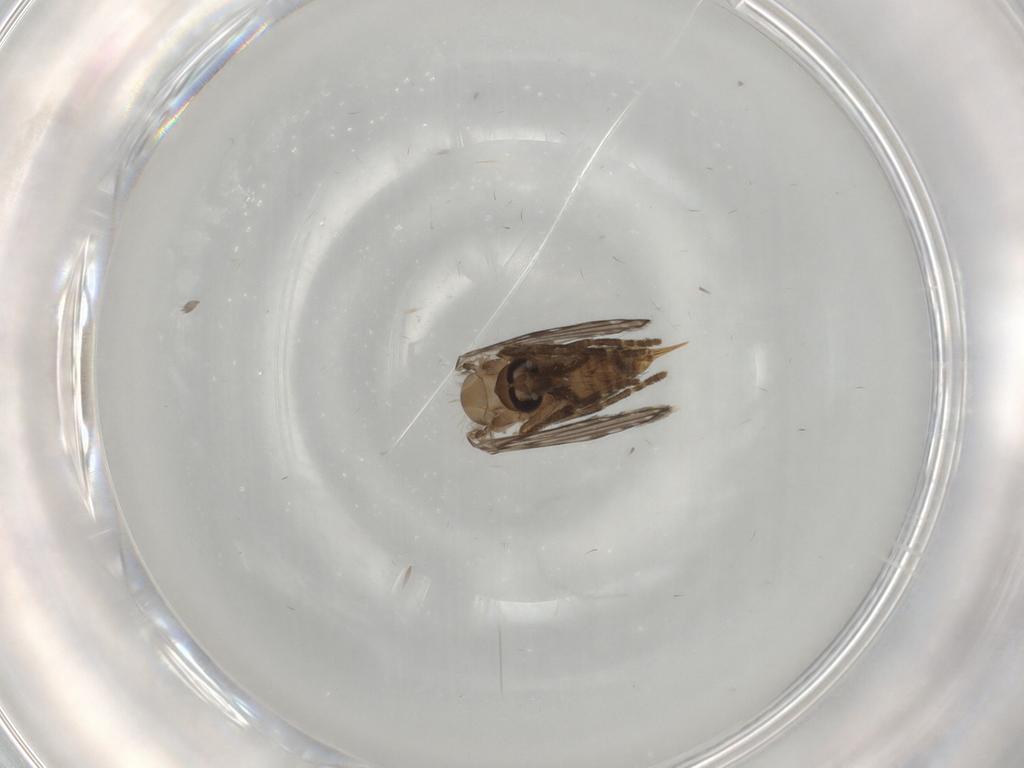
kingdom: Animalia
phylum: Arthropoda
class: Insecta
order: Diptera
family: Psychodidae
